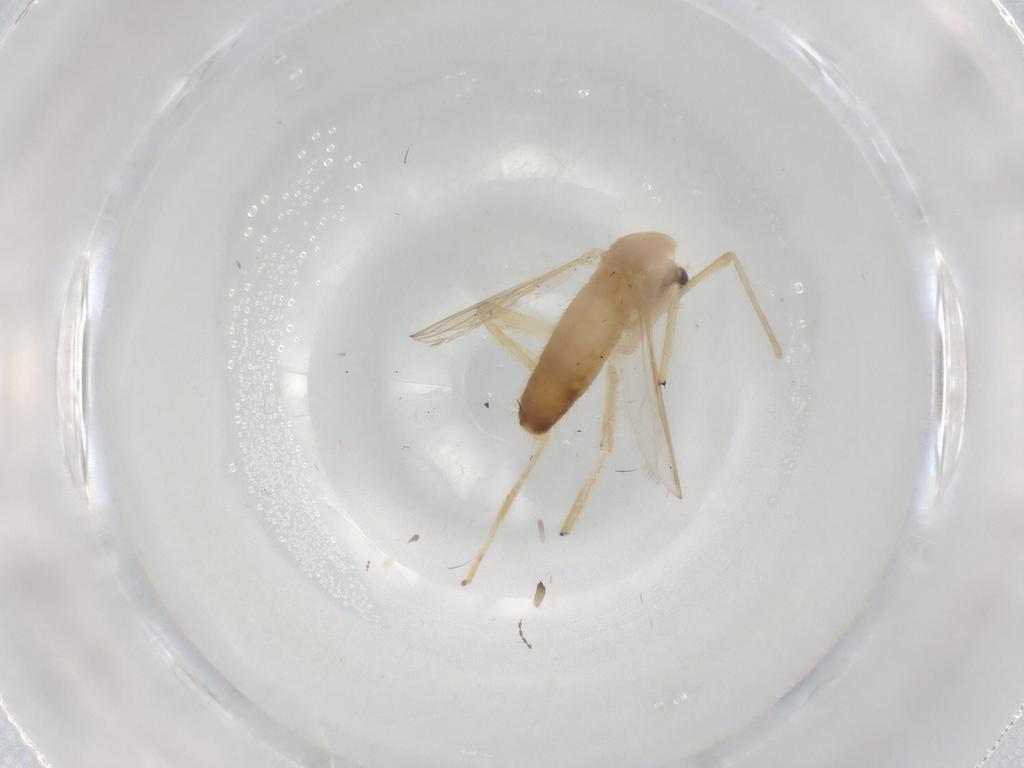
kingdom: Animalia
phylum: Arthropoda
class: Insecta
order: Diptera
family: Chironomidae
